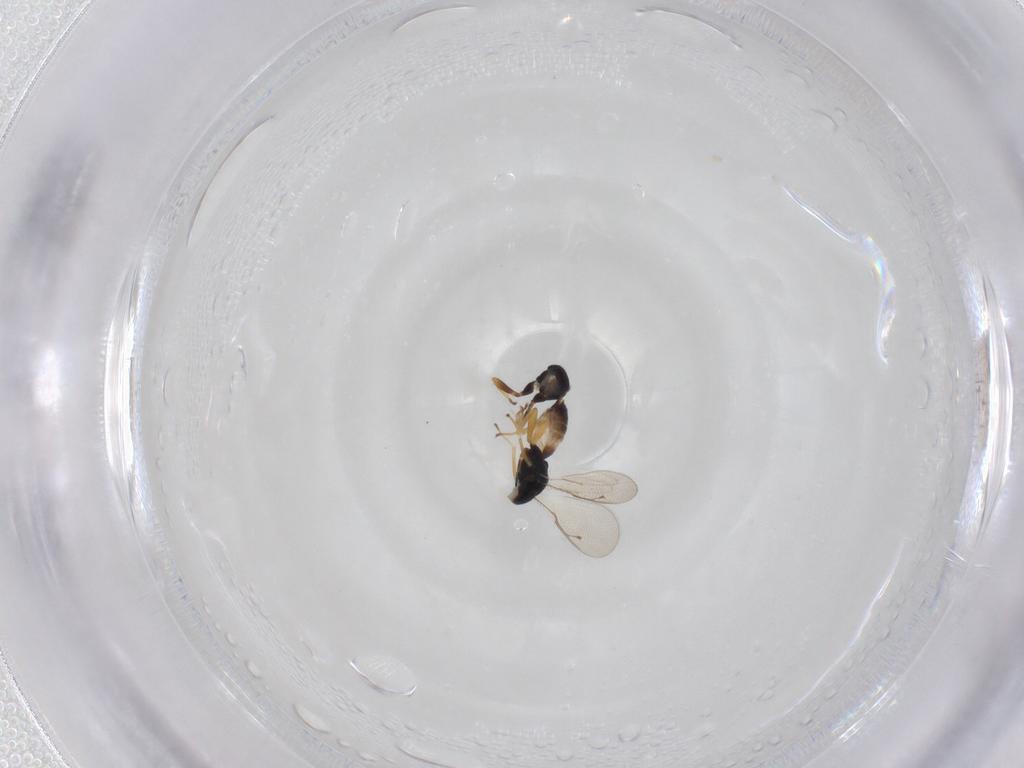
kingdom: Animalia
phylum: Arthropoda
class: Insecta
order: Hymenoptera
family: Pteromalidae
